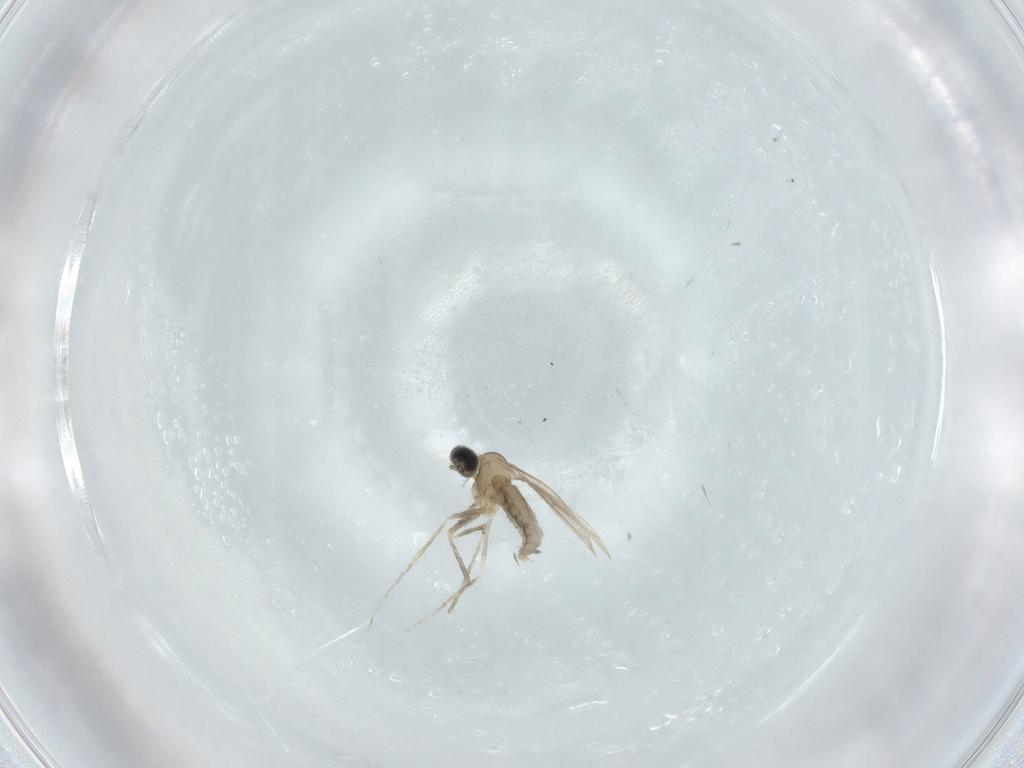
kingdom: Animalia
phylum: Arthropoda
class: Insecta
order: Diptera
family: Cecidomyiidae
